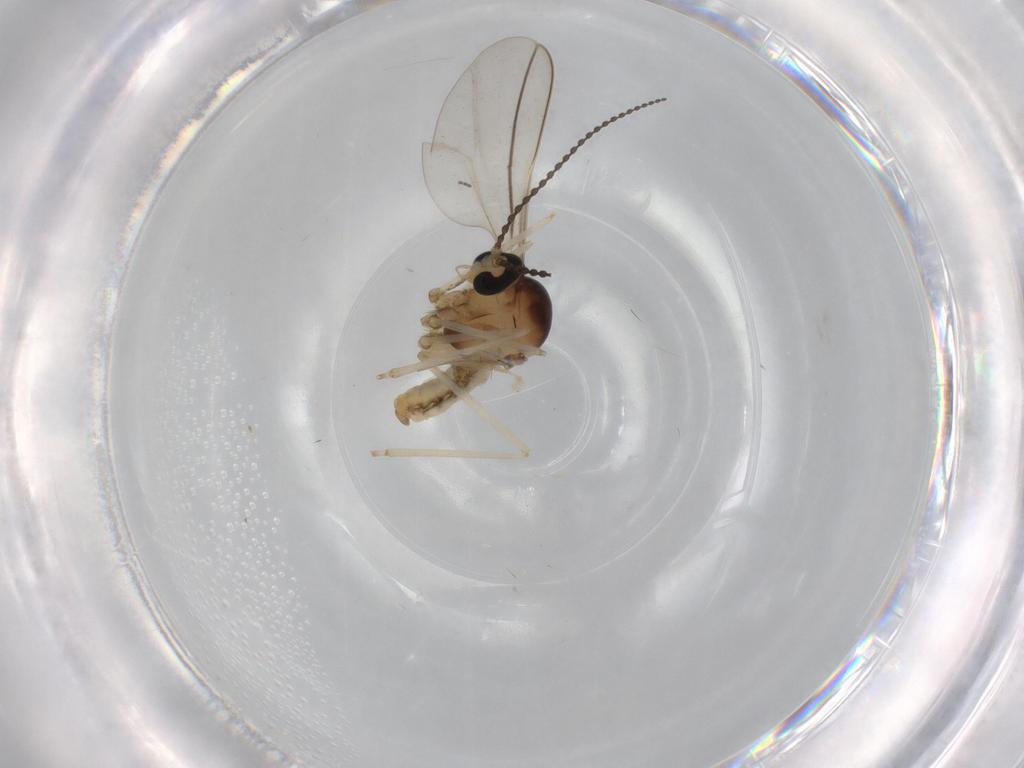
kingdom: Animalia
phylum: Arthropoda
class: Insecta
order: Diptera
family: Cecidomyiidae
